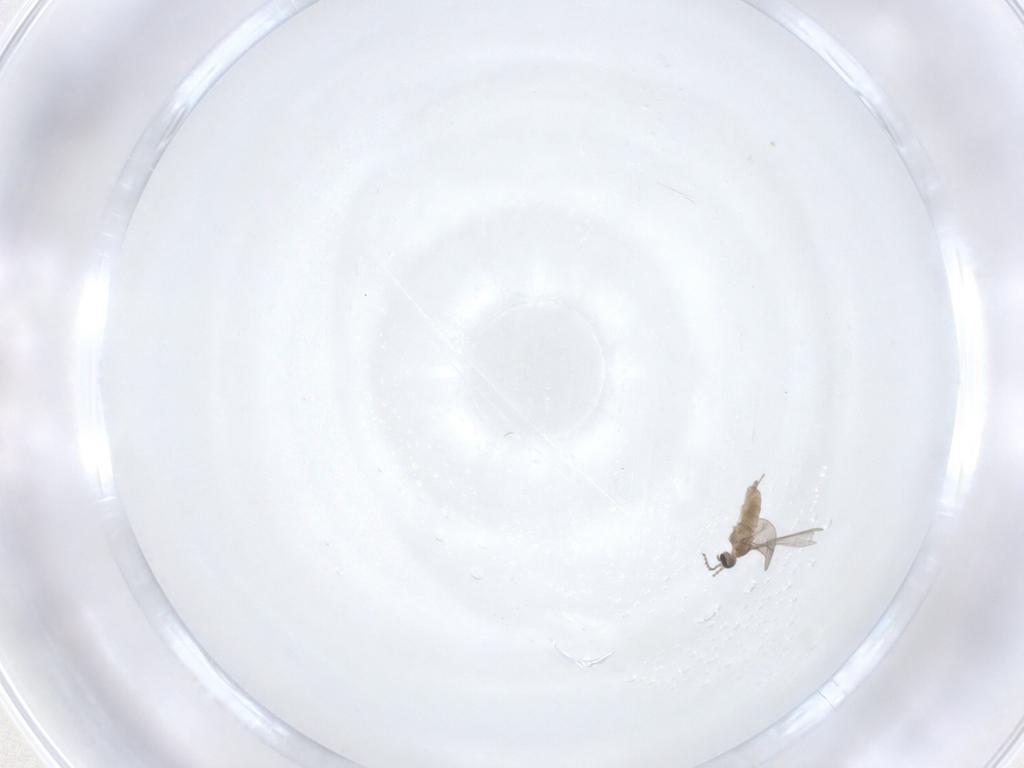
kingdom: Animalia
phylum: Arthropoda
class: Insecta
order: Diptera
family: Cecidomyiidae
